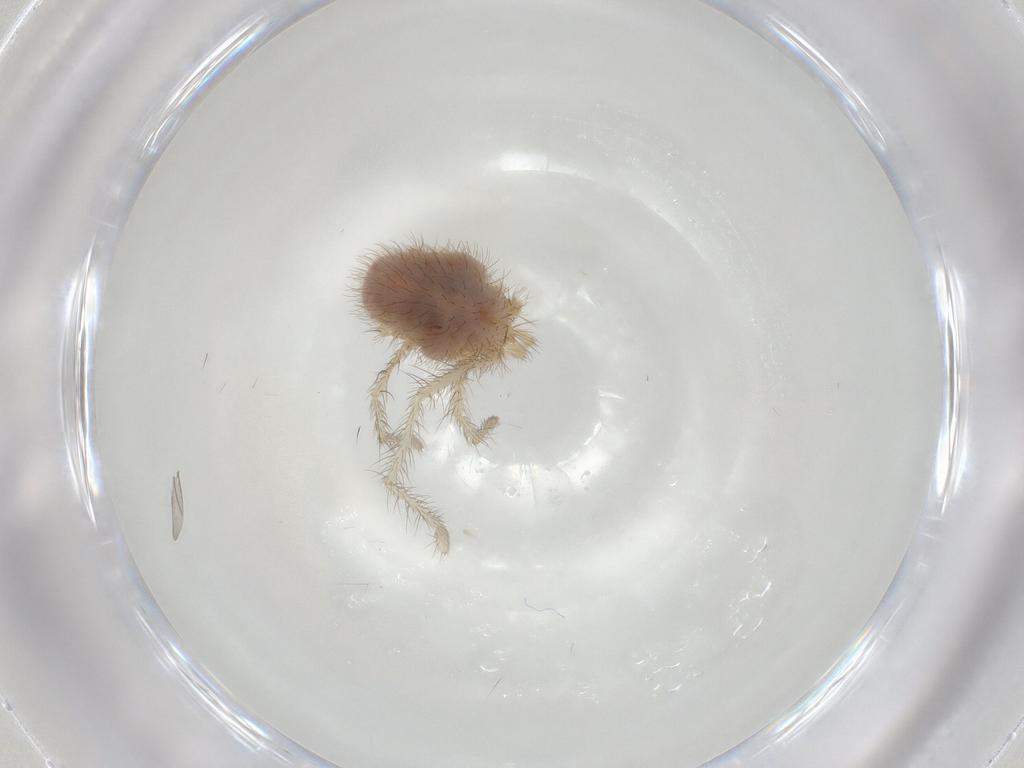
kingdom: Animalia
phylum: Arthropoda
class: Arachnida
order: Trombidiformes
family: Erythraeidae
